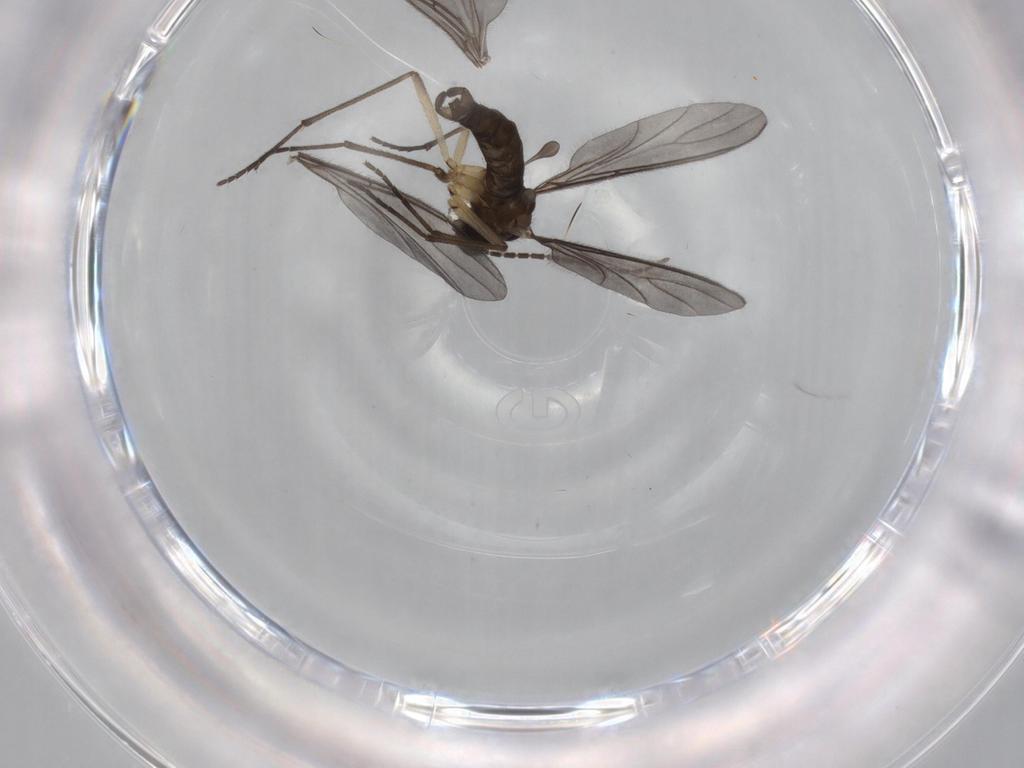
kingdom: Animalia
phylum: Arthropoda
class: Insecta
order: Diptera
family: Sciaridae
